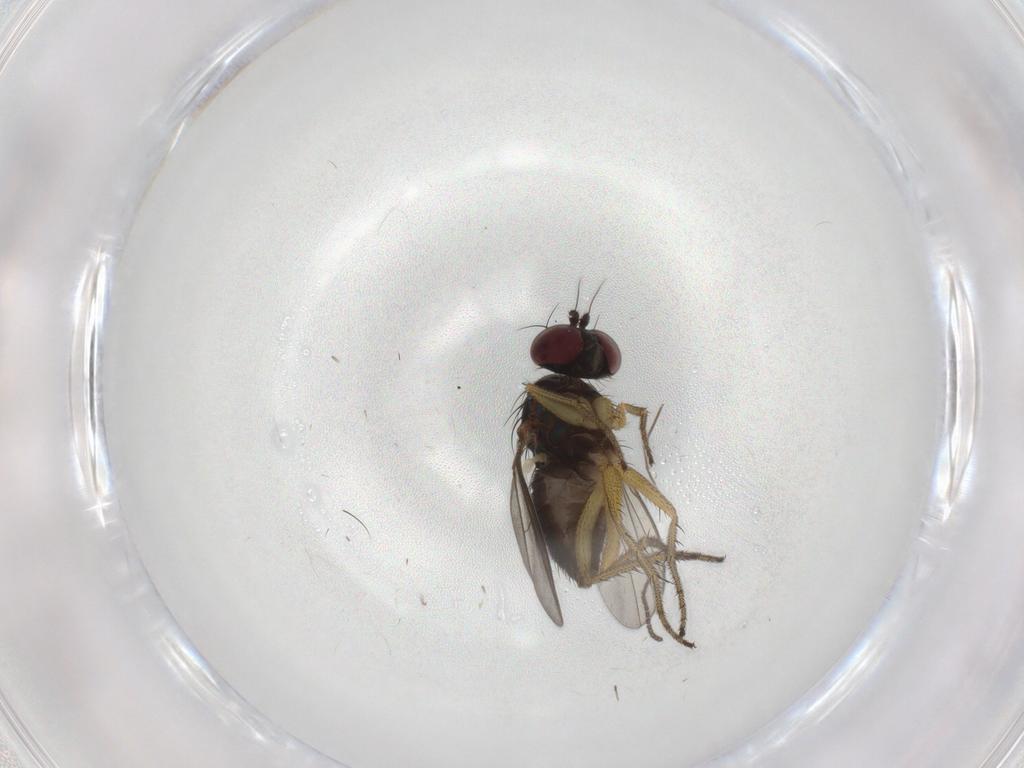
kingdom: Animalia
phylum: Arthropoda
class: Insecta
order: Diptera
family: Dolichopodidae
